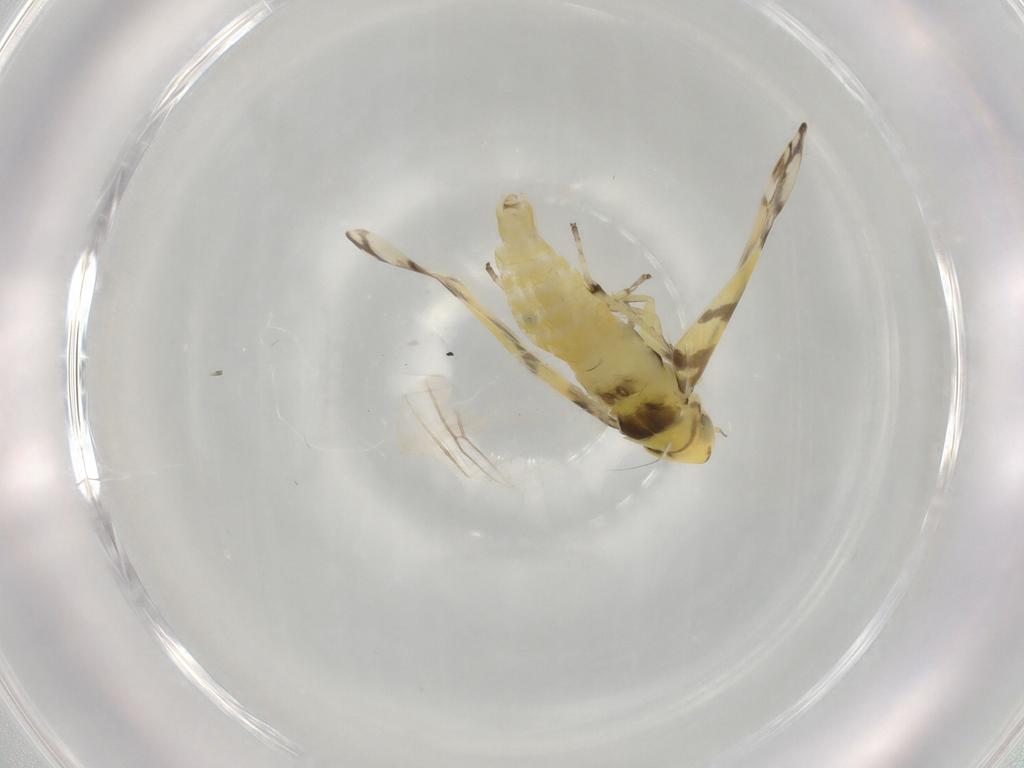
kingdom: Animalia
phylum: Arthropoda
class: Insecta
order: Hemiptera
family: Cicadellidae
